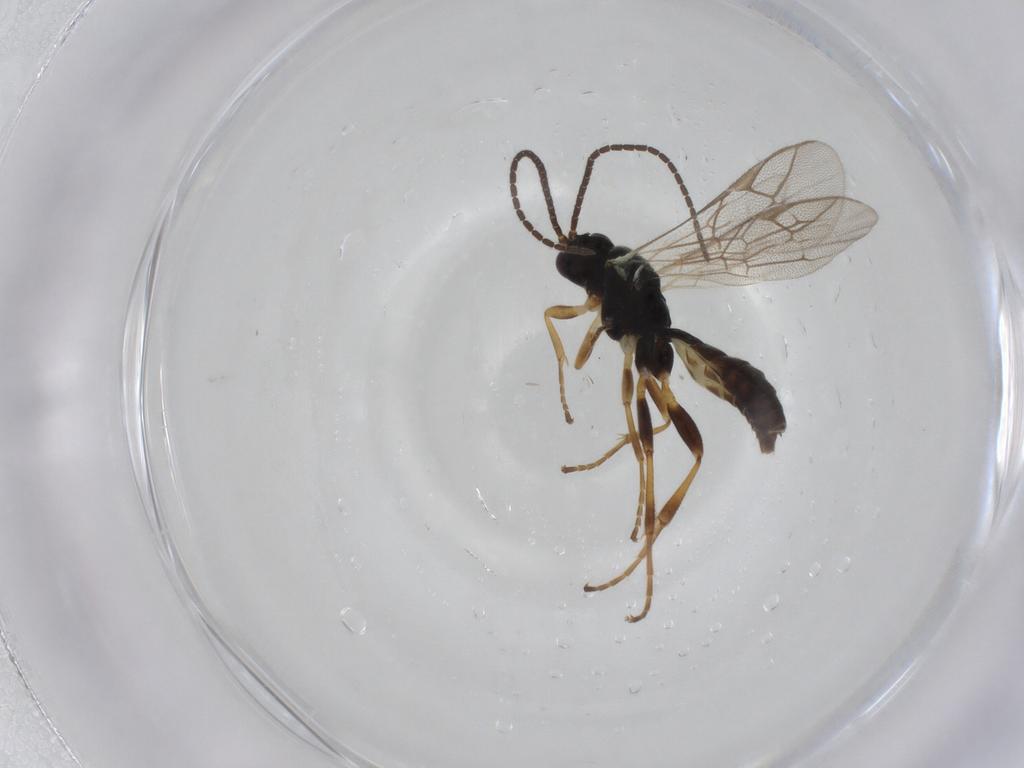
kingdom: Animalia
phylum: Arthropoda
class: Insecta
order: Hymenoptera
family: Ichneumonidae
